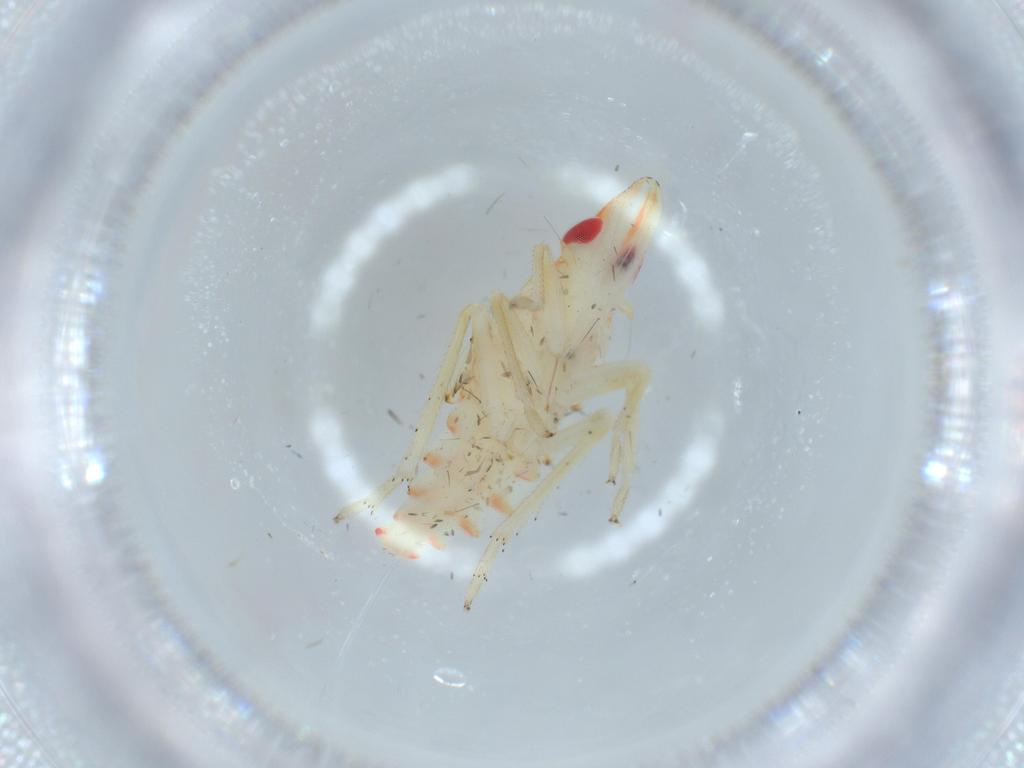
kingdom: Animalia
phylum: Arthropoda
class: Insecta
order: Hemiptera
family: Tropiduchidae
